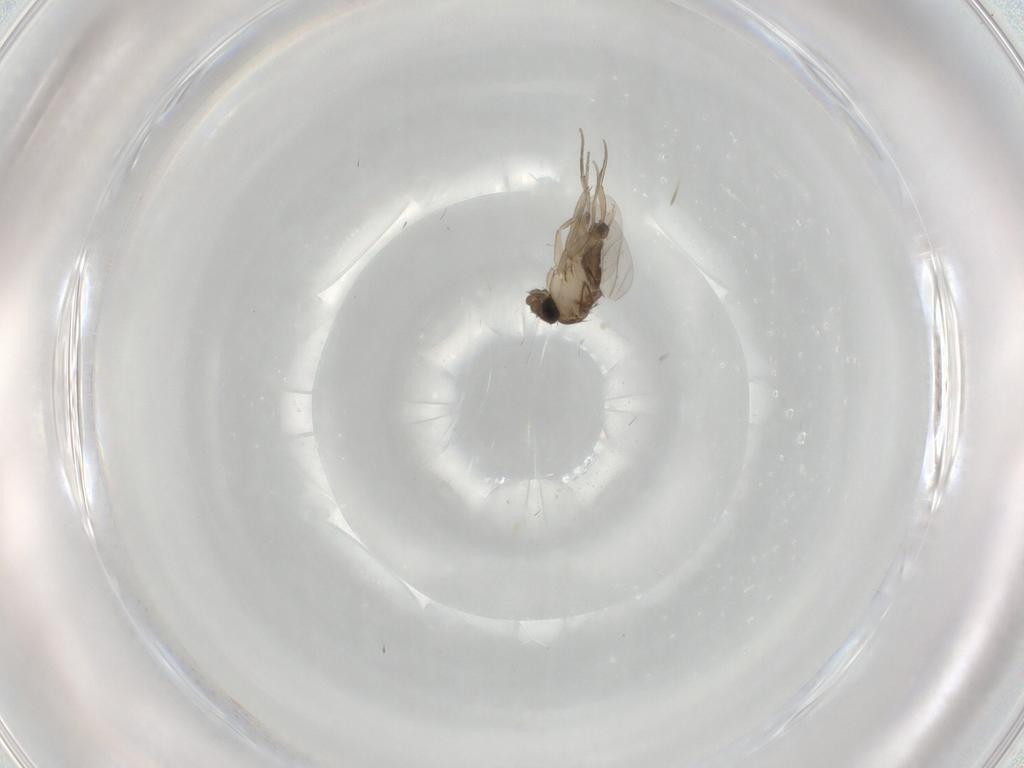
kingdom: Animalia
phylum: Arthropoda
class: Insecta
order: Diptera
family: Phoridae
